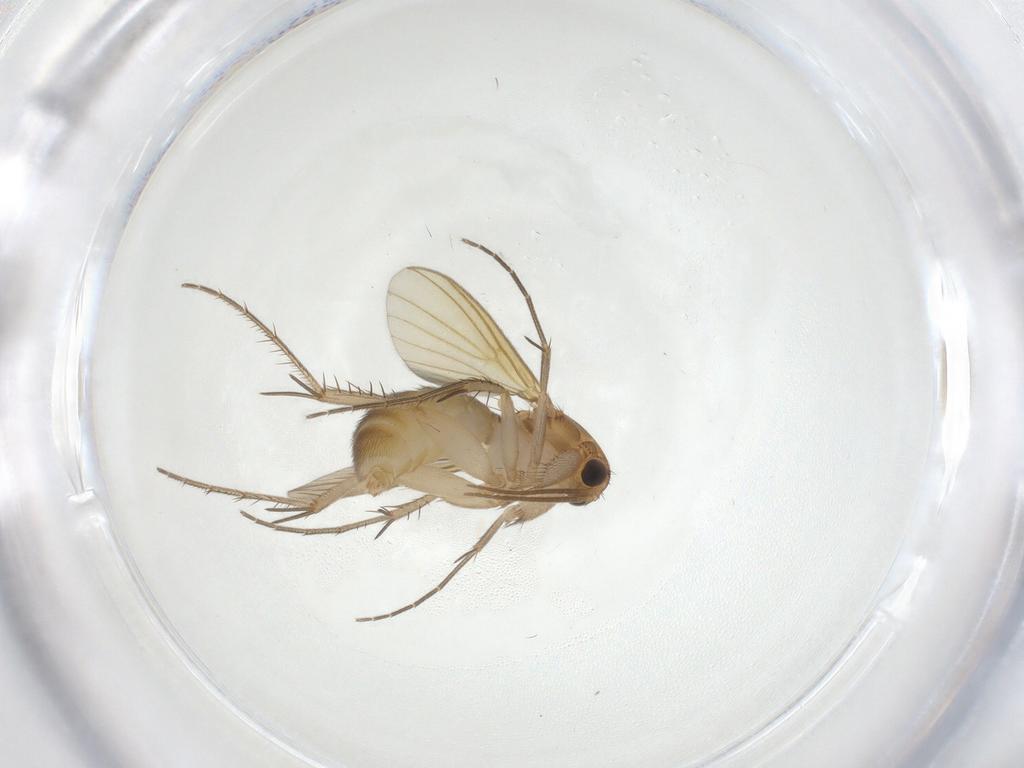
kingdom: Animalia
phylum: Arthropoda
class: Insecta
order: Diptera
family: Mycetophilidae
